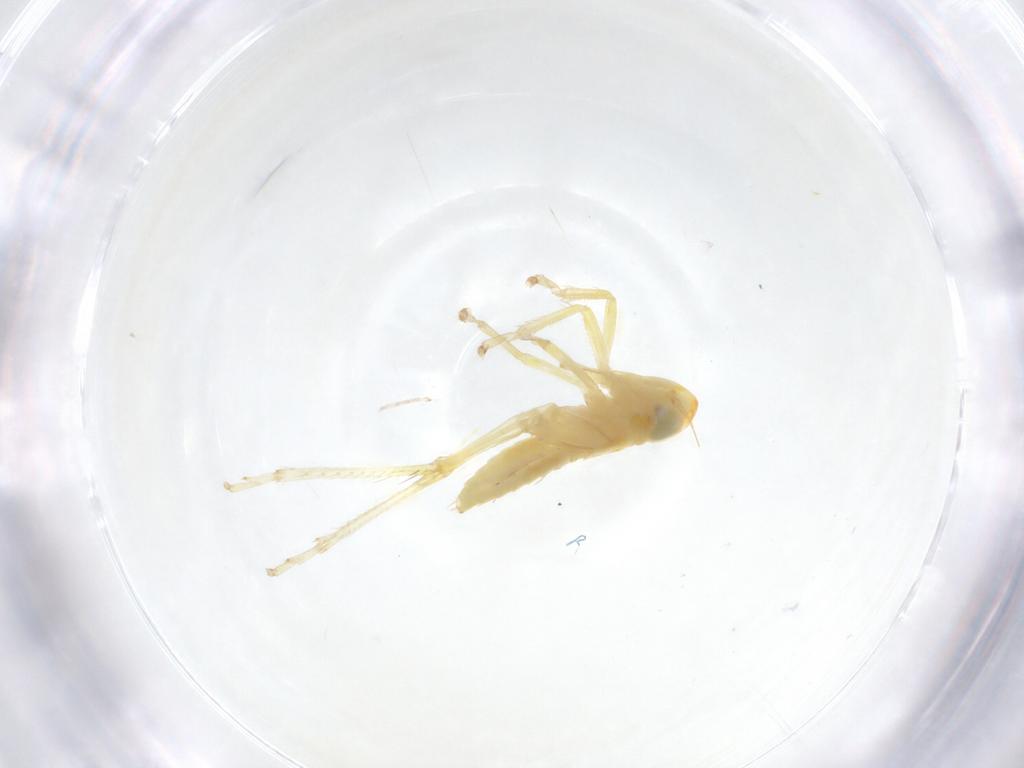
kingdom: Animalia
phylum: Arthropoda
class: Insecta
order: Hemiptera
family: Cicadellidae
